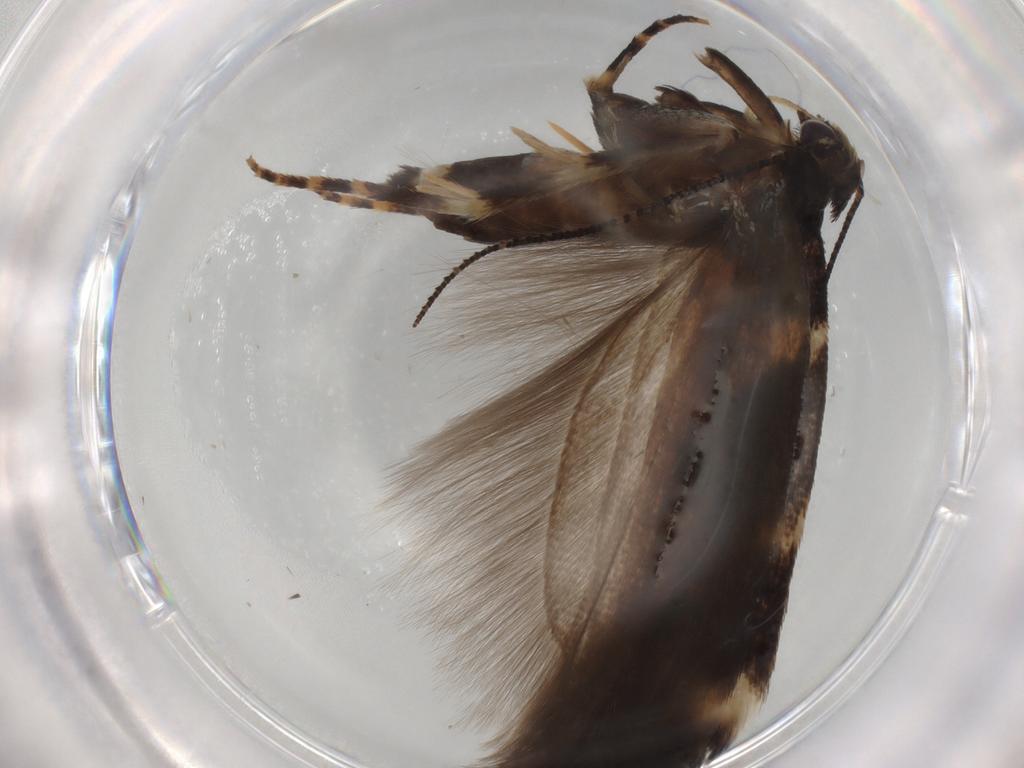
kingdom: Animalia
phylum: Arthropoda
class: Insecta
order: Lepidoptera
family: Gelechiidae
